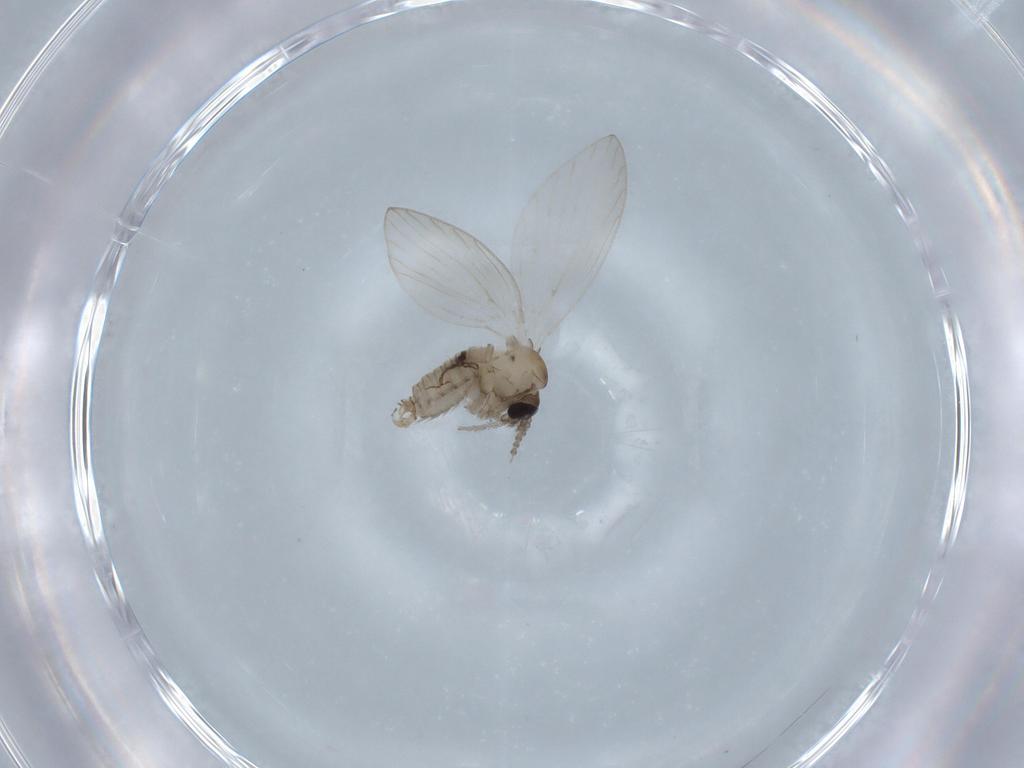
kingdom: Animalia
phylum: Arthropoda
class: Insecta
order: Diptera
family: Psychodidae
